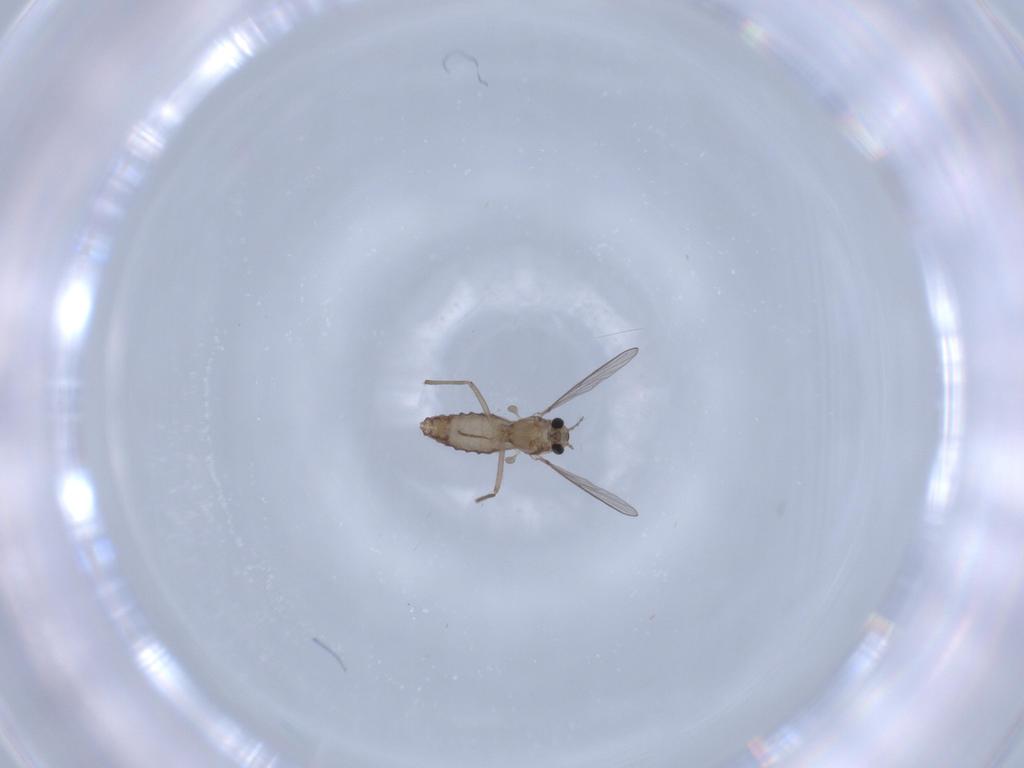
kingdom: Animalia
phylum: Arthropoda
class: Insecta
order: Diptera
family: Chironomidae
